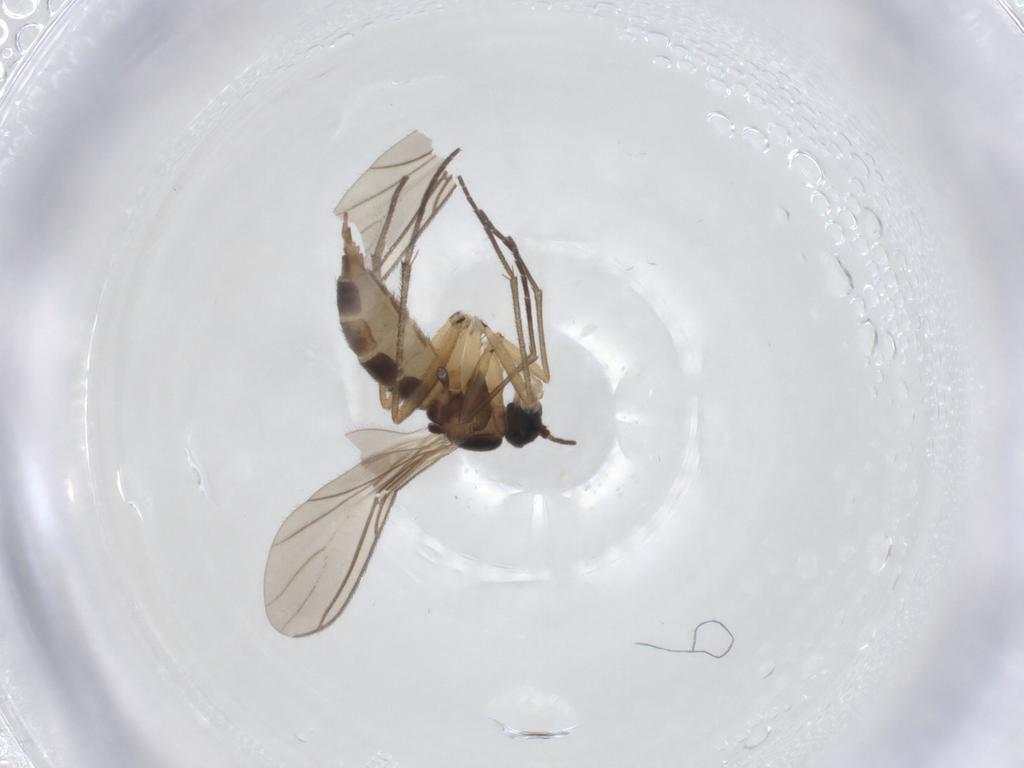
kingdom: Animalia
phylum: Arthropoda
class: Insecta
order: Diptera
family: Sciaridae
